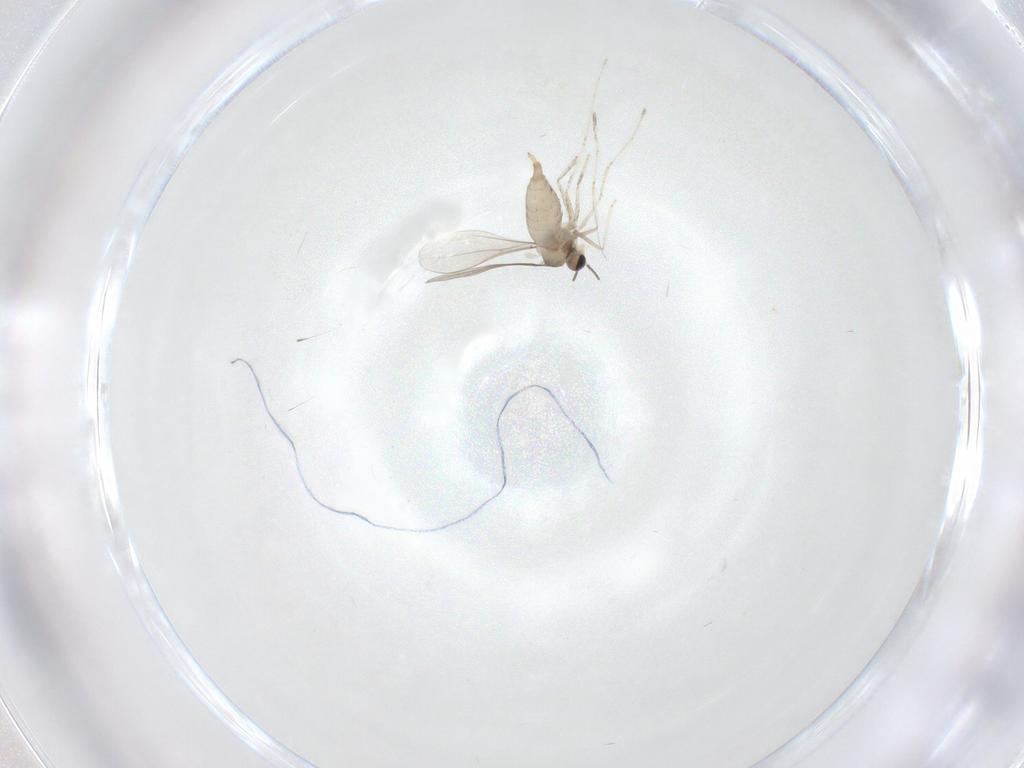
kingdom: Animalia
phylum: Arthropoda
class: Insecta
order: Diptera
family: Cecidomyiidae
